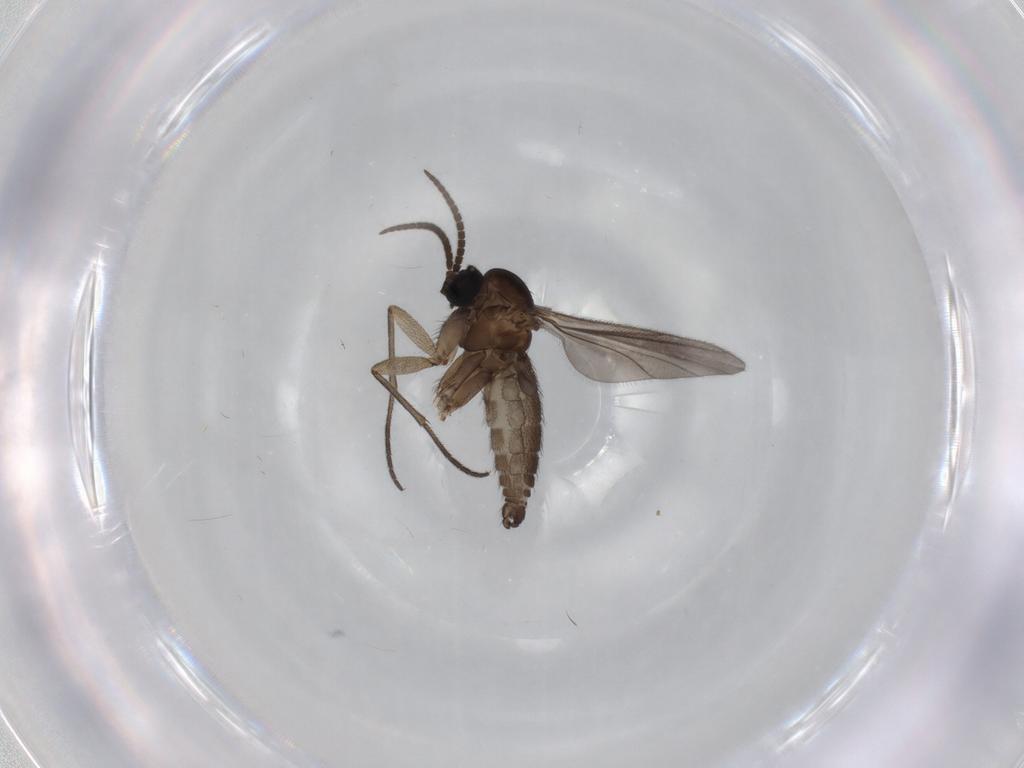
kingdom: Animalia
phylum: Arthropoda
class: Insecta
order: Diptera
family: Sciaridae
